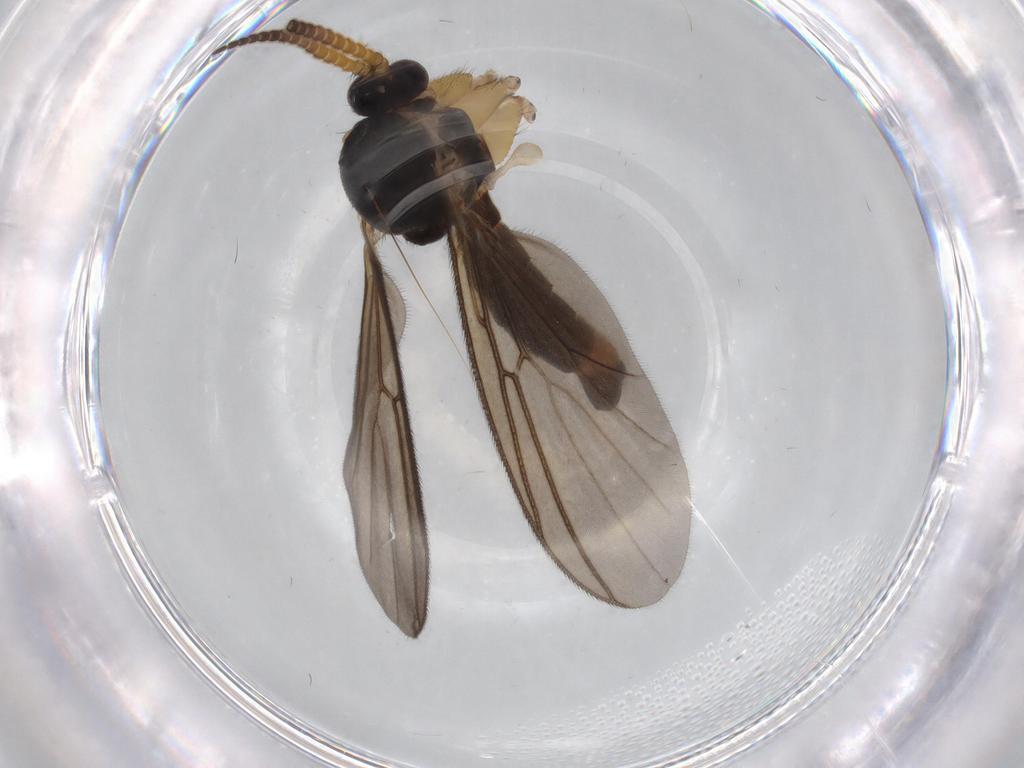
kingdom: Animalia
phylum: Arthropoda
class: Insecta
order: Diptera
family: Cecidomyiidae
